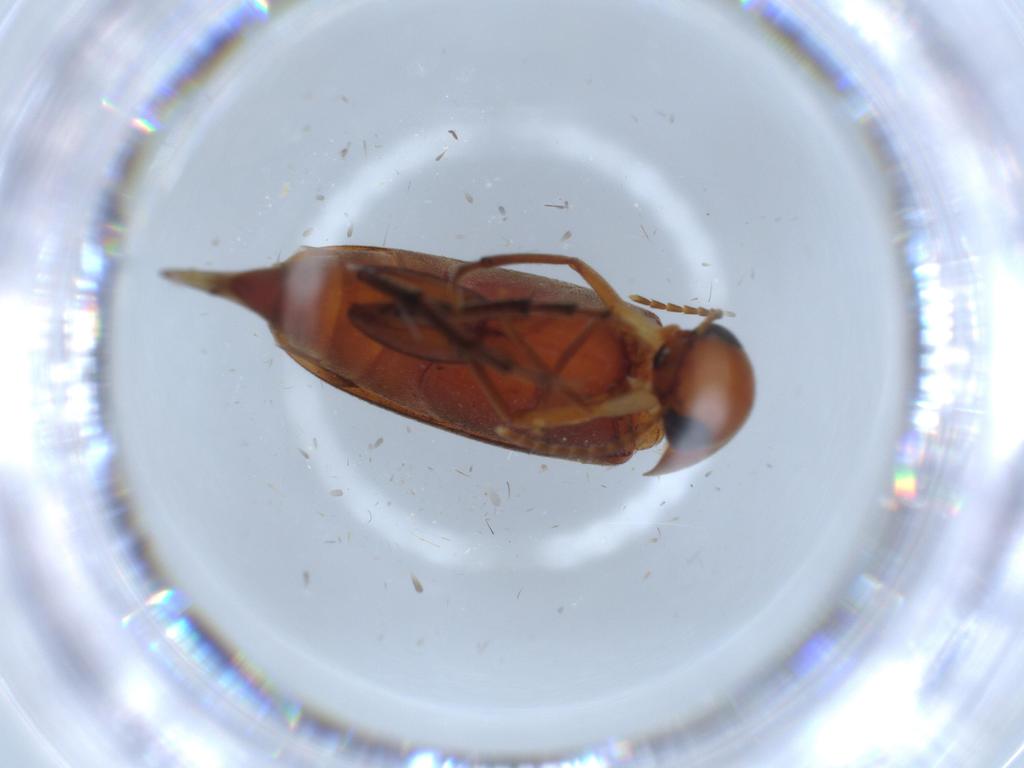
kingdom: Animalia
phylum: Arthropoda
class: Insecta
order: Coleoptera
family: Mordellidae
